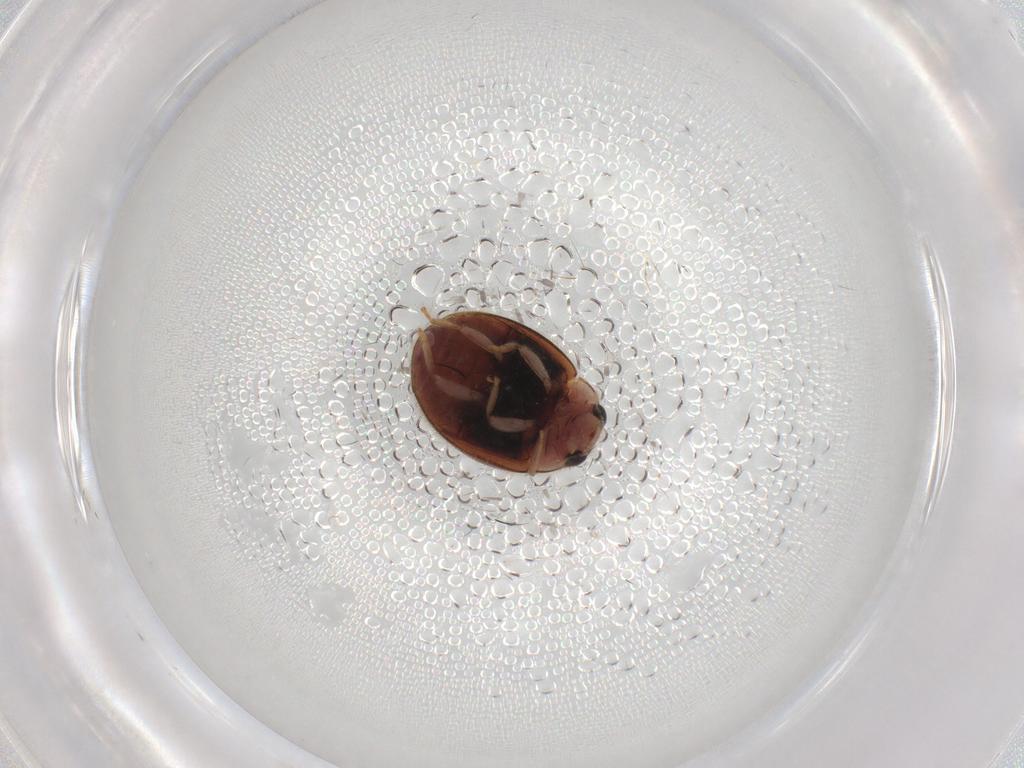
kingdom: Animalia
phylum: Arthropoda
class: Insecta
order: Coleoptera
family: Coccinellidae
